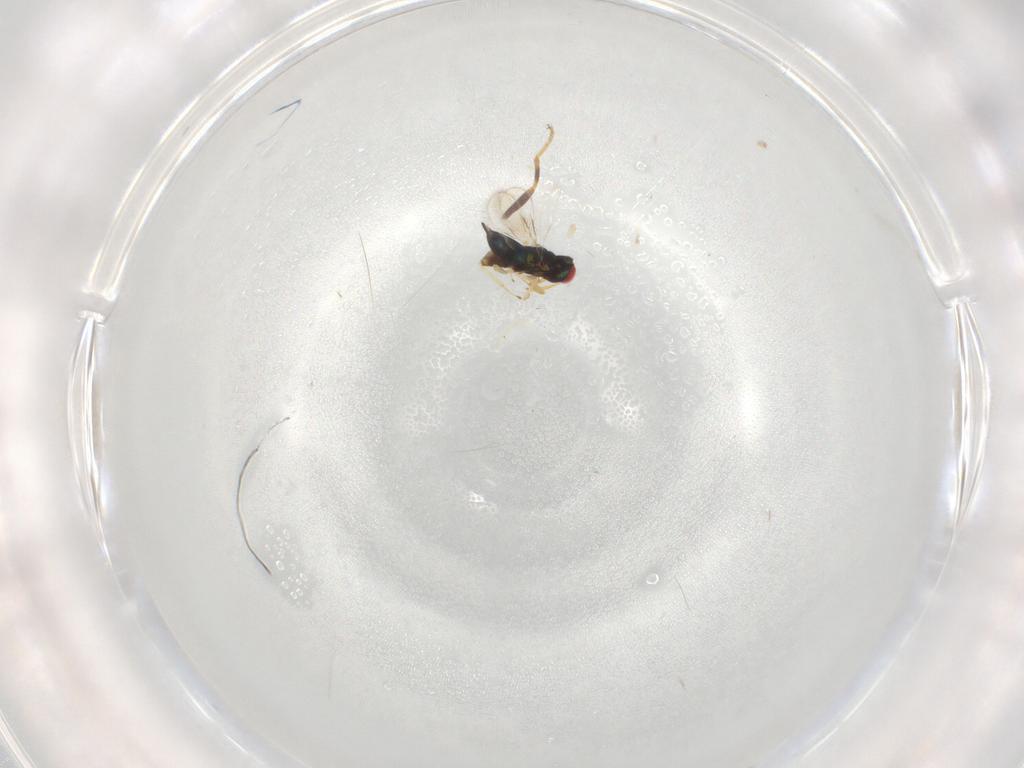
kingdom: Animalia
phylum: Arthropoda
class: Insecta
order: Hymenoptera
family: Azotidae
